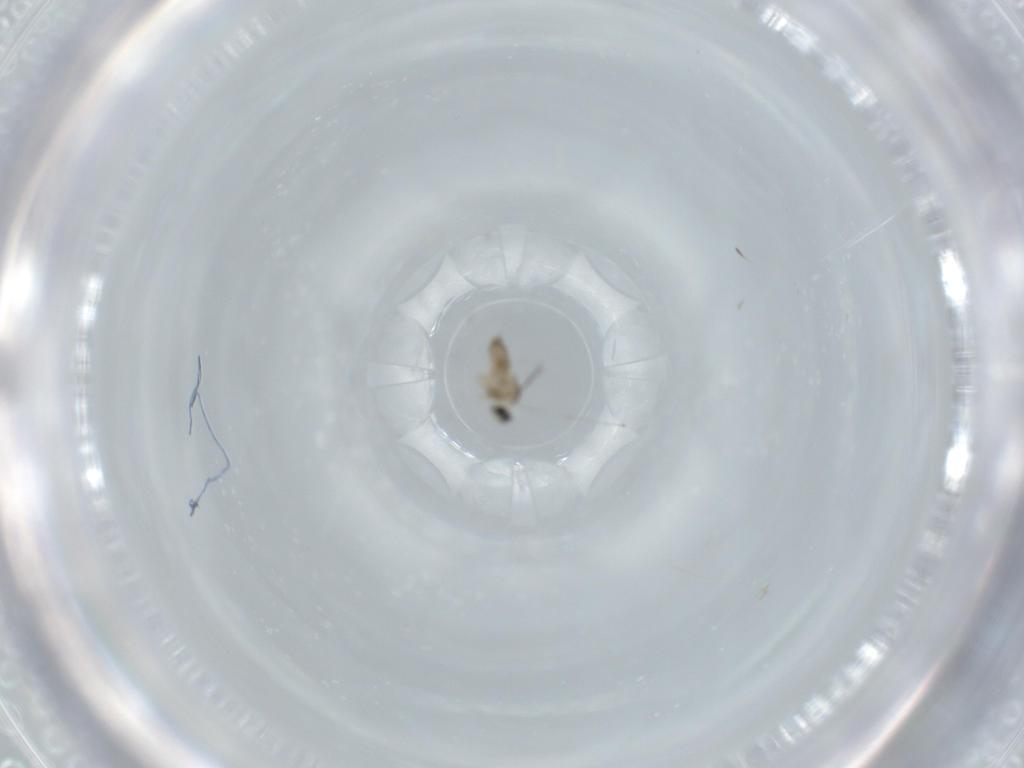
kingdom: Animalia
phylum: Arthropoda
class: Insecta
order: Diptera
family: Cecidomyiidae
